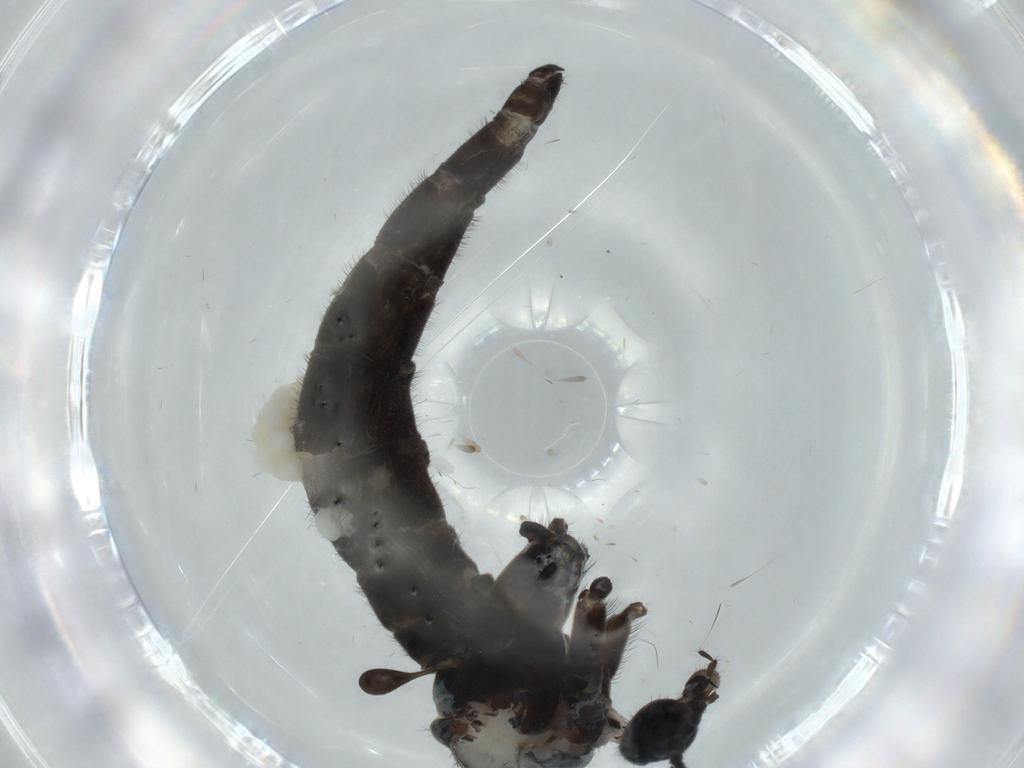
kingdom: Animalia
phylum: Arthropoda
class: Insecta
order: Diptera
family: Sciaridae
